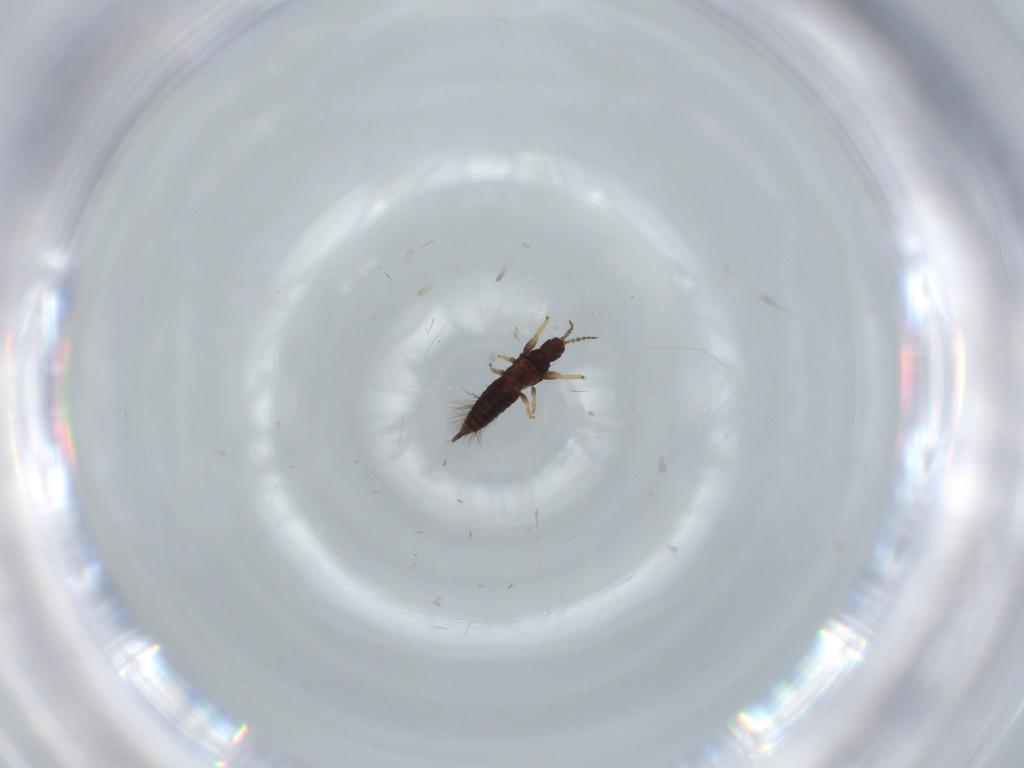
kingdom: Animalia
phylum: Arthropoda
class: Insecta
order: Thysanoptera
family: Phlaeothripidae
